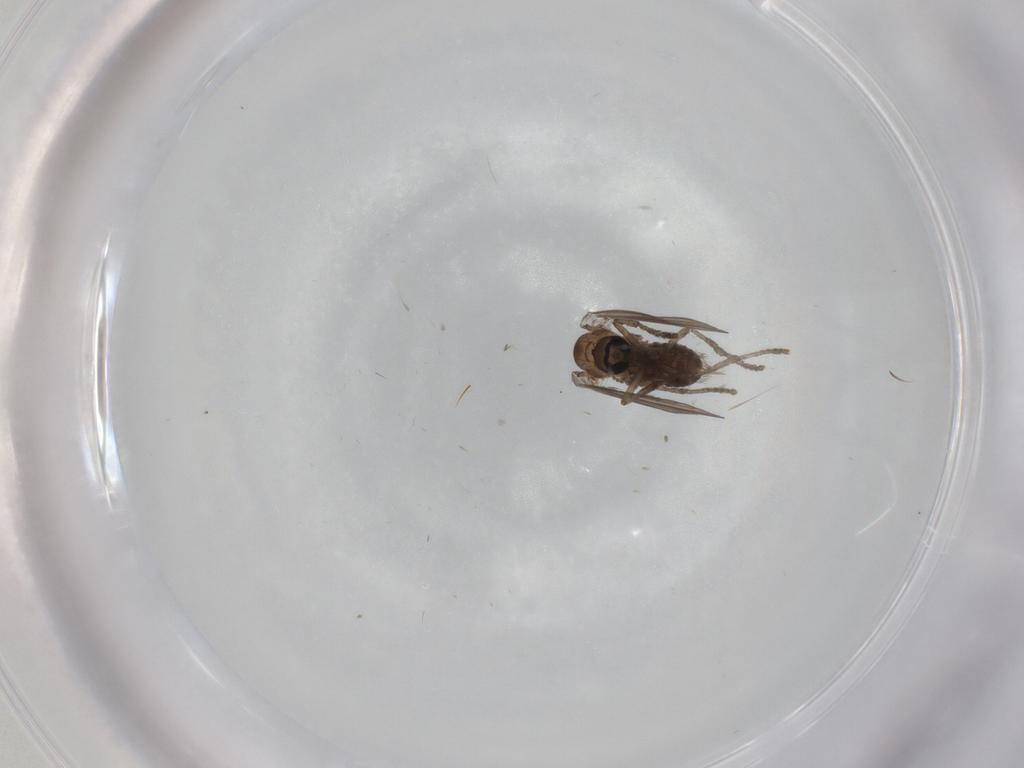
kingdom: Animalia
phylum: Arthropoda
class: Insecta
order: Diptera
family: Psychodidae
